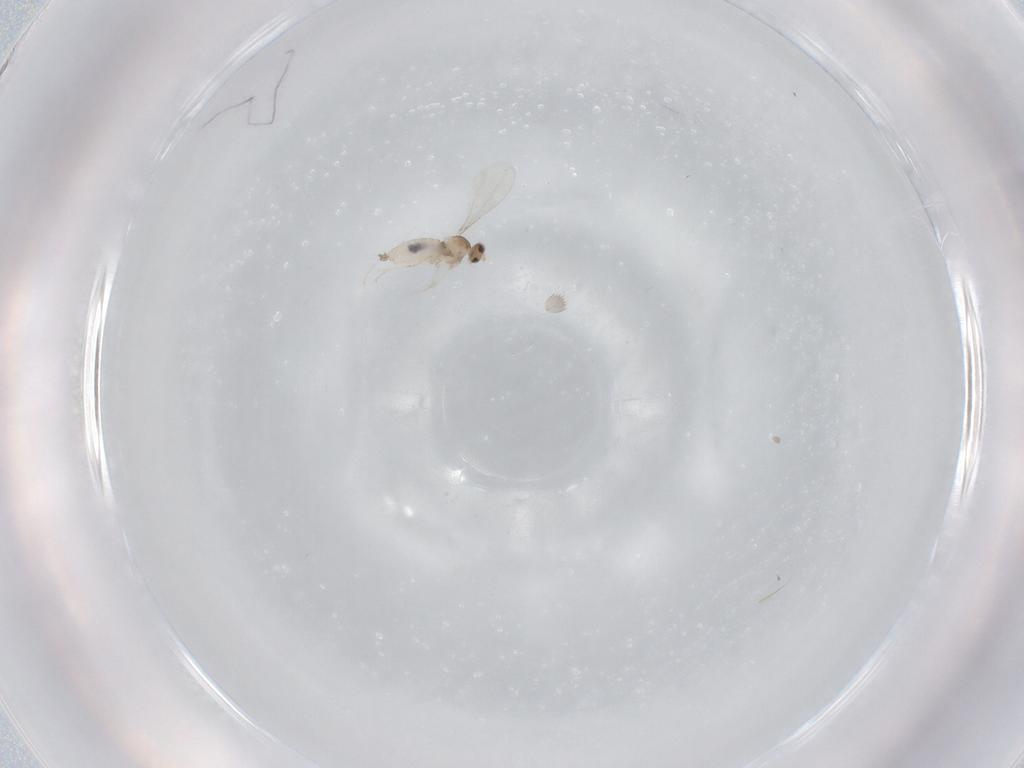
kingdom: Animalia
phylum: Arthropoda
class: Insecta
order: Diptera
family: Cecidomyiidae
